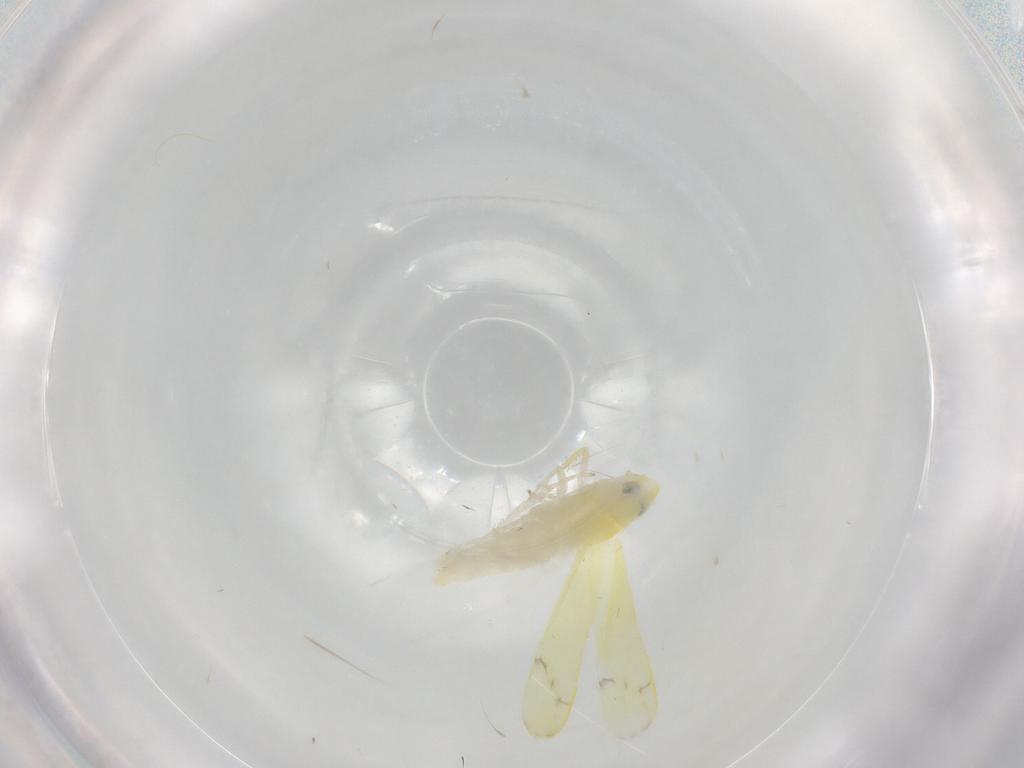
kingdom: Animalia
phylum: Arthropoda
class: Insecta
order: Hemiptera
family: Cicadellidae
